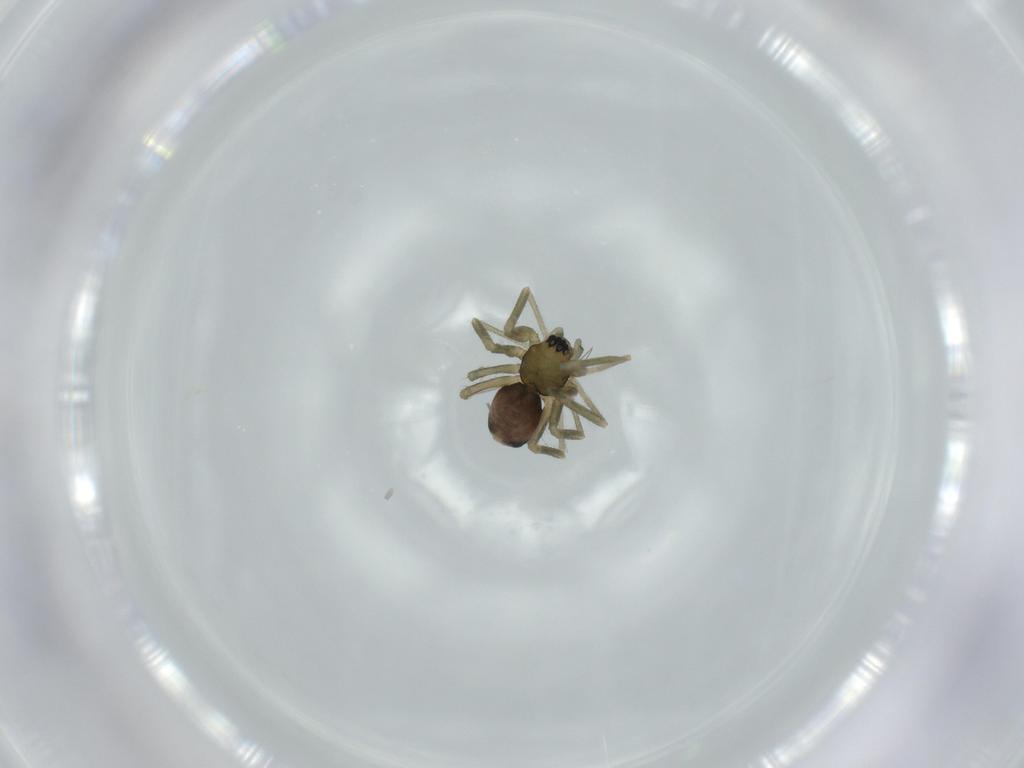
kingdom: Animalia
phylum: Arthropoda
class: Arachnida
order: Araneae
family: Linyphiidae
